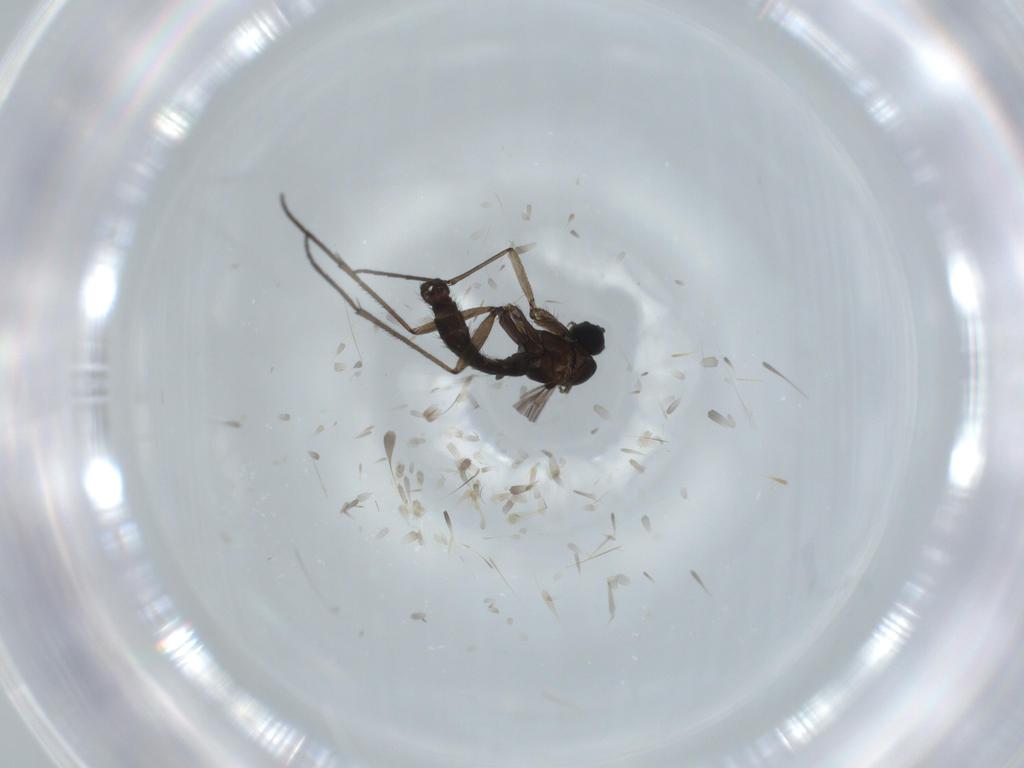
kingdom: Animalia
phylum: Arthropoda
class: Insecta
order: Diptera
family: Sciaridae
